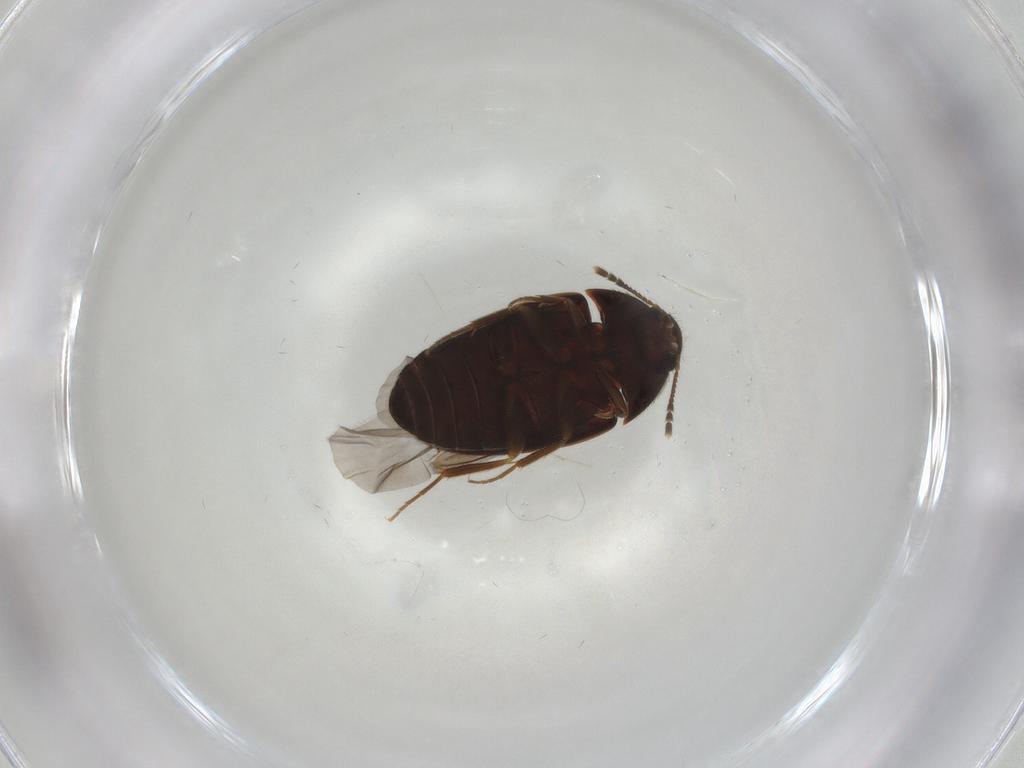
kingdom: Animalia
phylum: Arthropoda
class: Insecta
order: Coleoptera
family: Mycetophagidae
